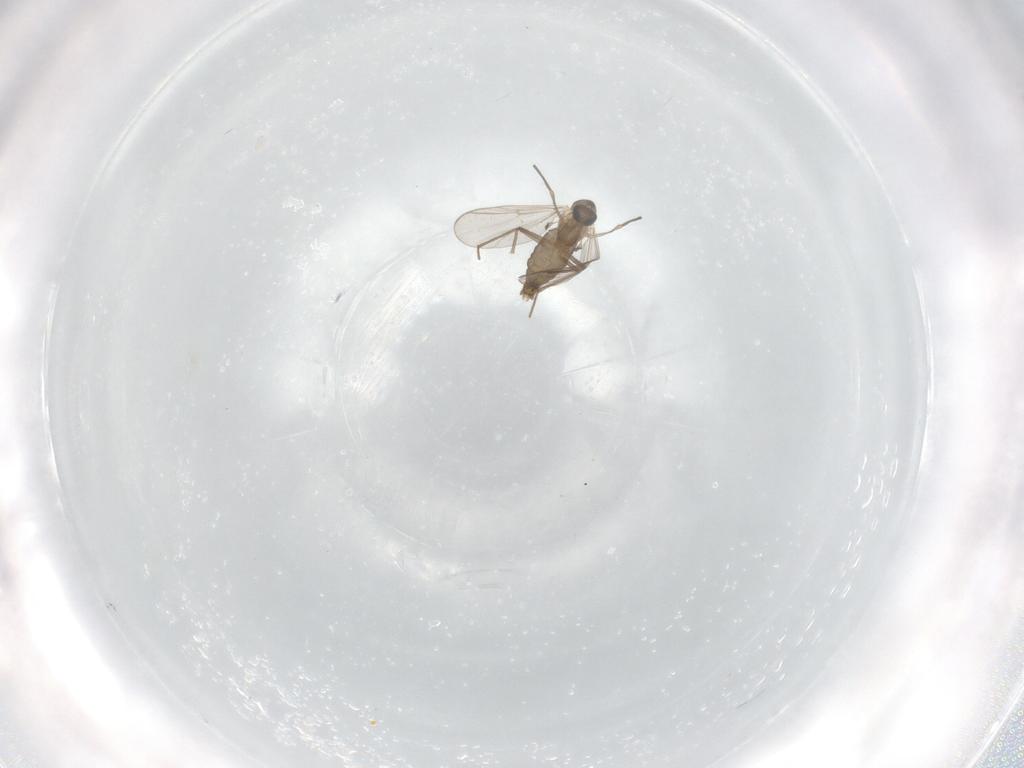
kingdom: Animalia
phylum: Arthropoda
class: Insecta
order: Diptera
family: Chironomidae
